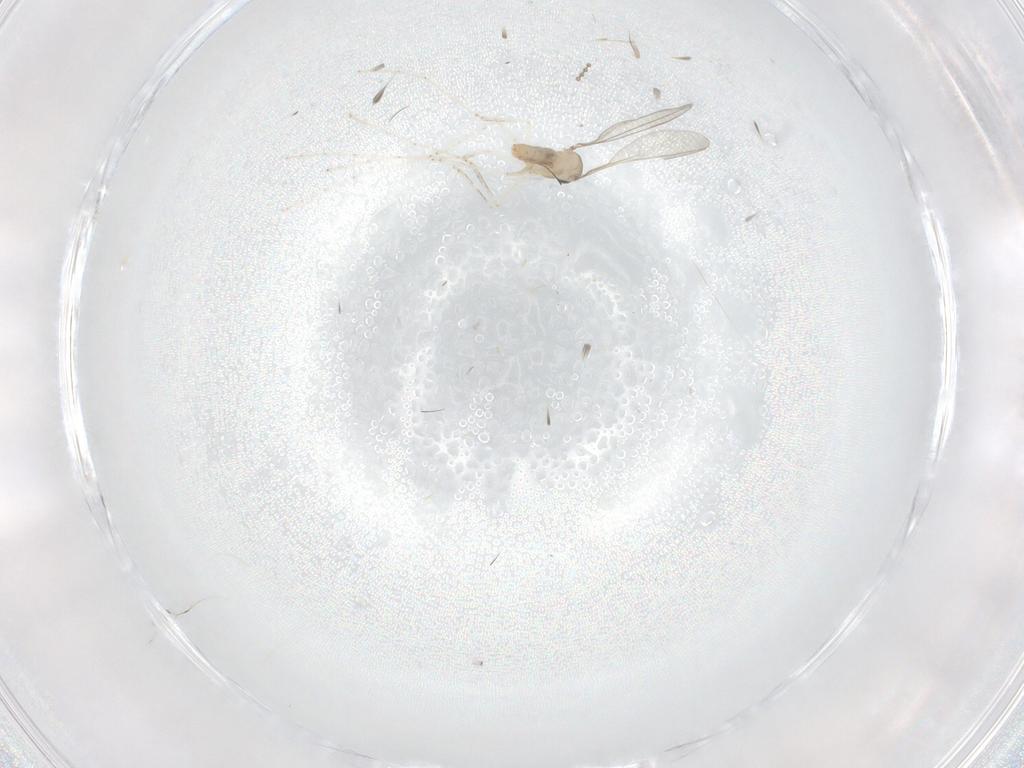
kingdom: Animalia
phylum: Arthropoda
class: Insecta
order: Diptera
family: Cecidomyiidae
